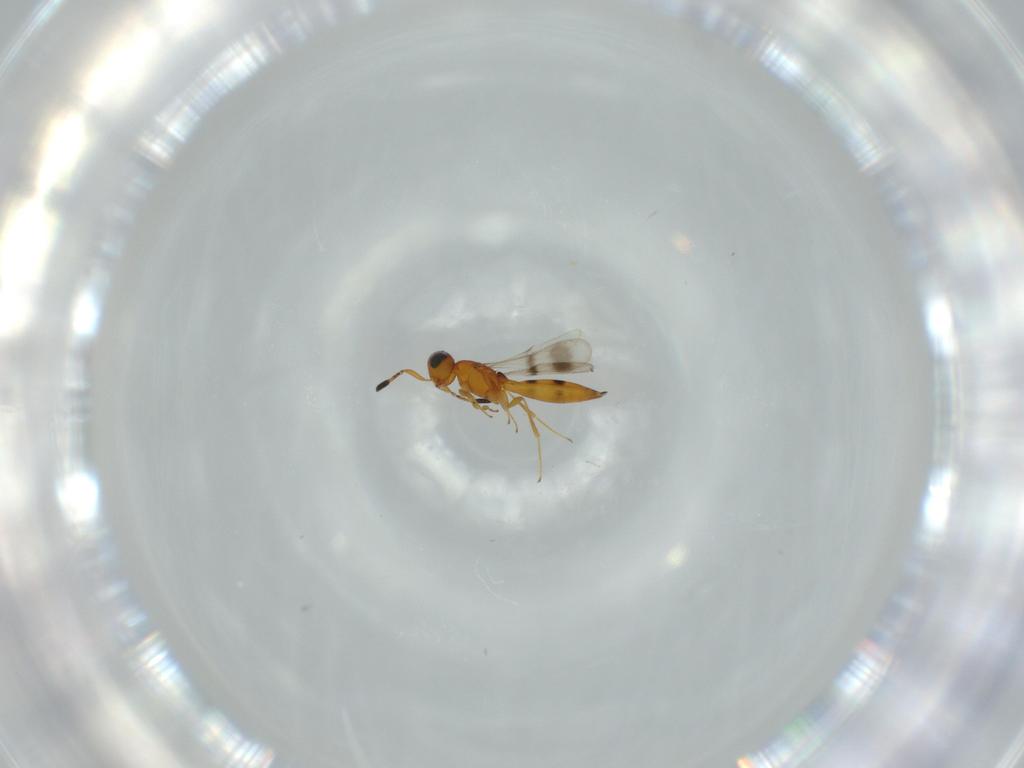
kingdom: Animalia
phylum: Arthropoda
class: Insecta
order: Hymenoptera
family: Scelionidae
